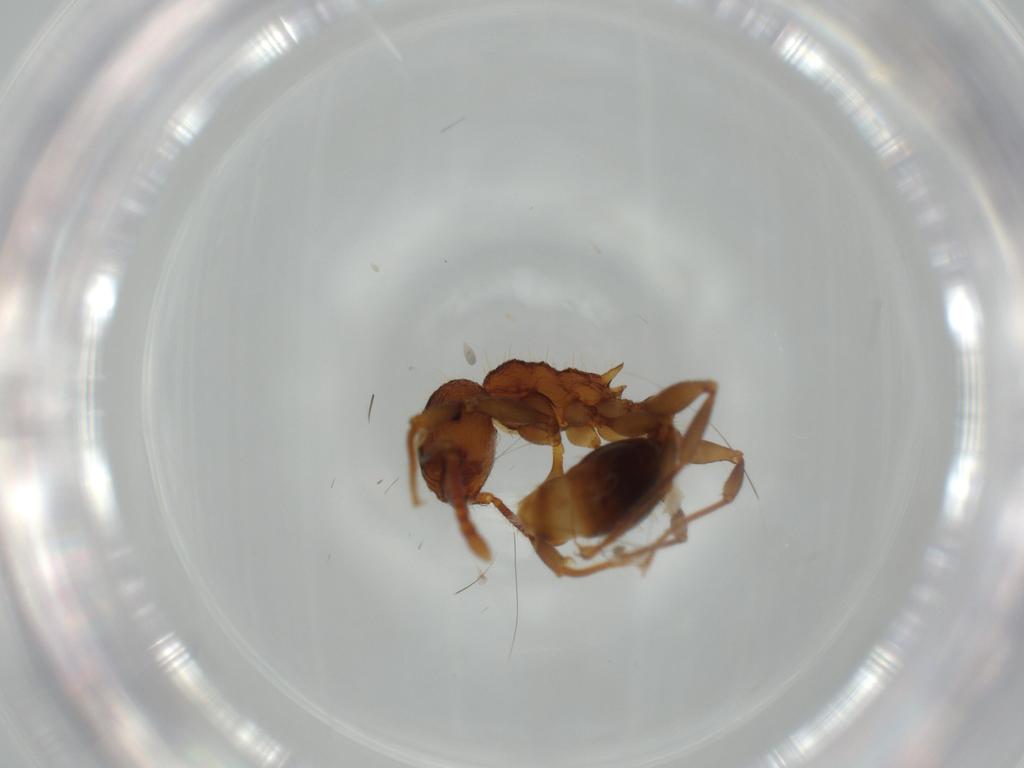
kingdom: Animalia
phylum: Arthropoda
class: Insecta
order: Hymenoptera
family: Formicidae
